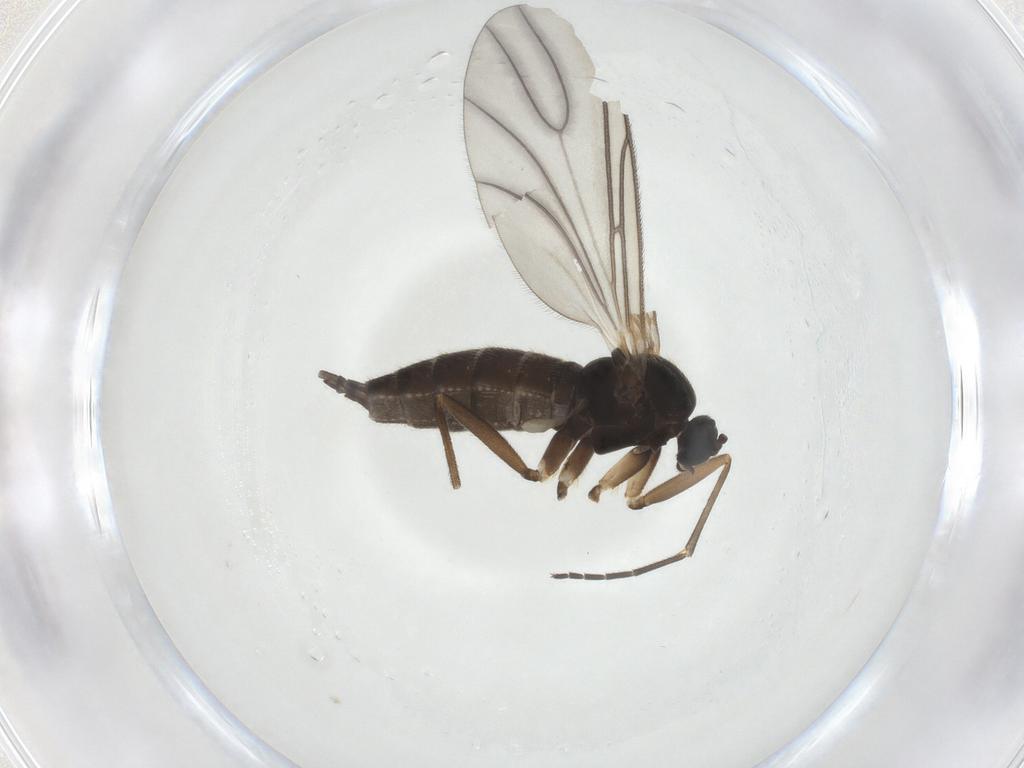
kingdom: Animalia
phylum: Arthropoda
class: Insecta
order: Diptera
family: Sciaridae
